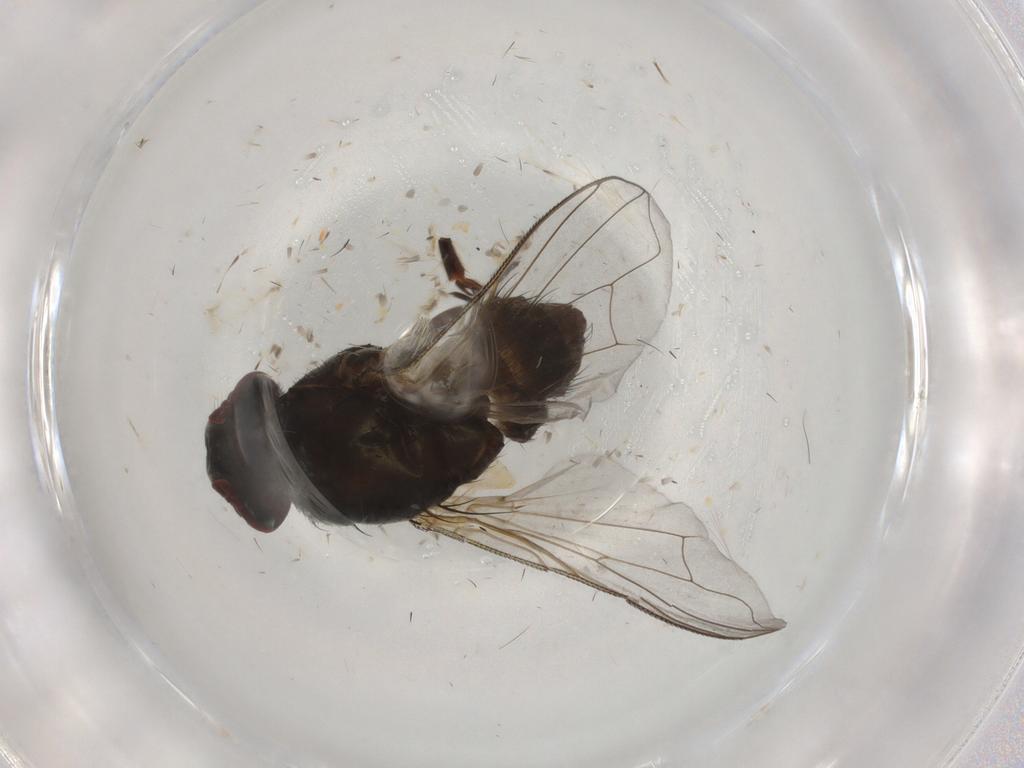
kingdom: Animalia
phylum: Arthropoda
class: Insecta
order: Diptera
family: Muscidae
